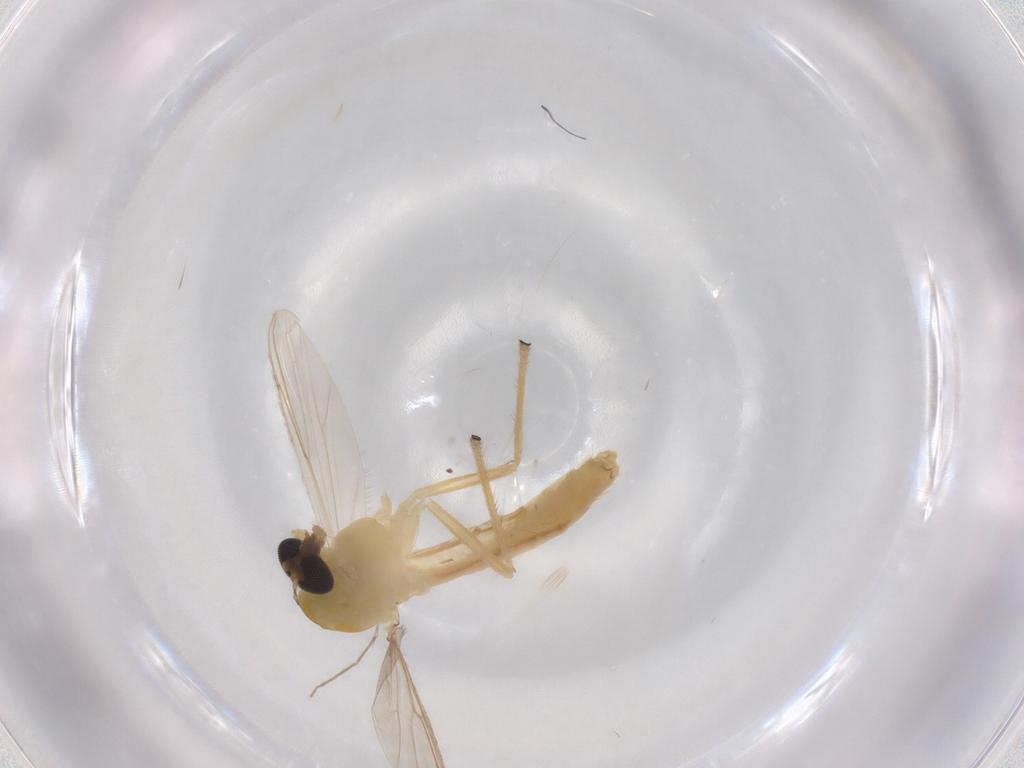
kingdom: Animalia
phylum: Arthropoda
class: Insecta
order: Diptera
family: Chironomidae
